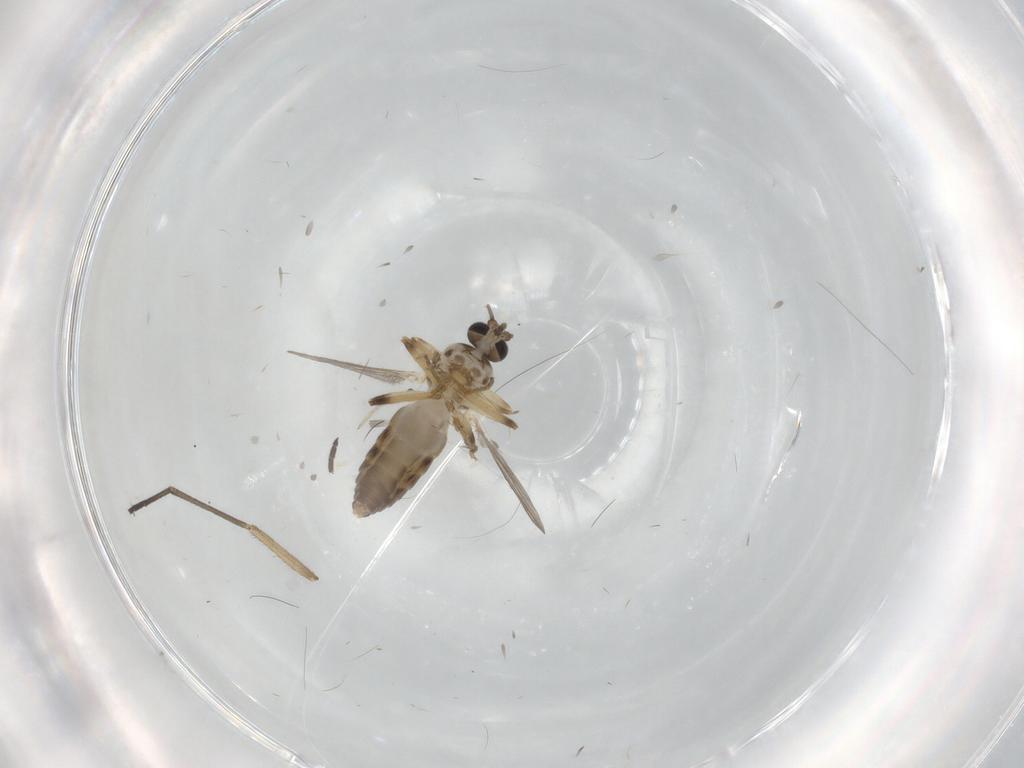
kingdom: Animalia
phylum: Arthropoda
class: Insecta
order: Diptera
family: Ceratopogonidae
